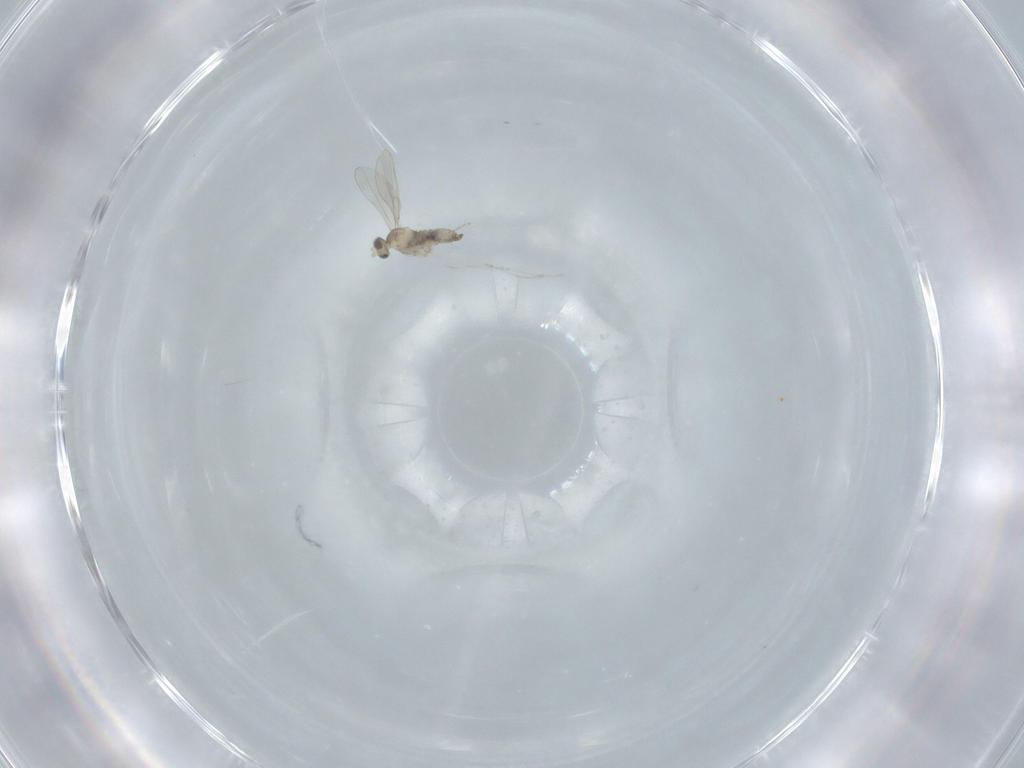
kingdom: Animalia
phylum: Arthropoda
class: Insecta
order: Diptera
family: Cecidomyiidae
